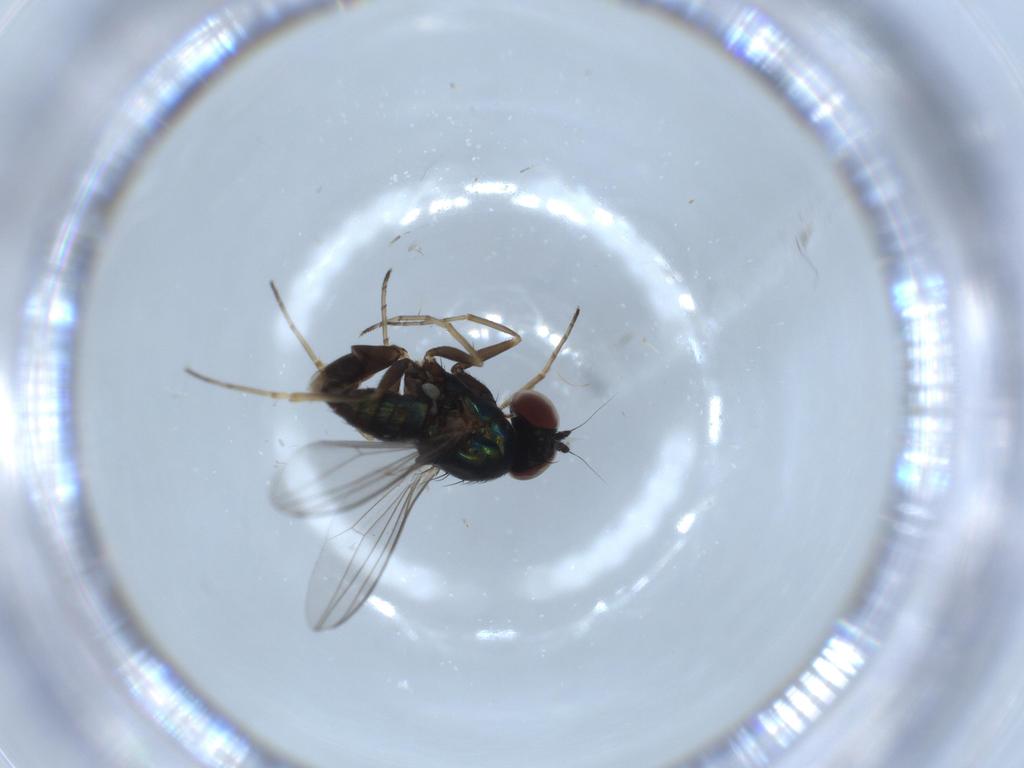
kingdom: Animalia
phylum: Arthropoda
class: Insecta
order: Diptera
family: Dolichopodidae
